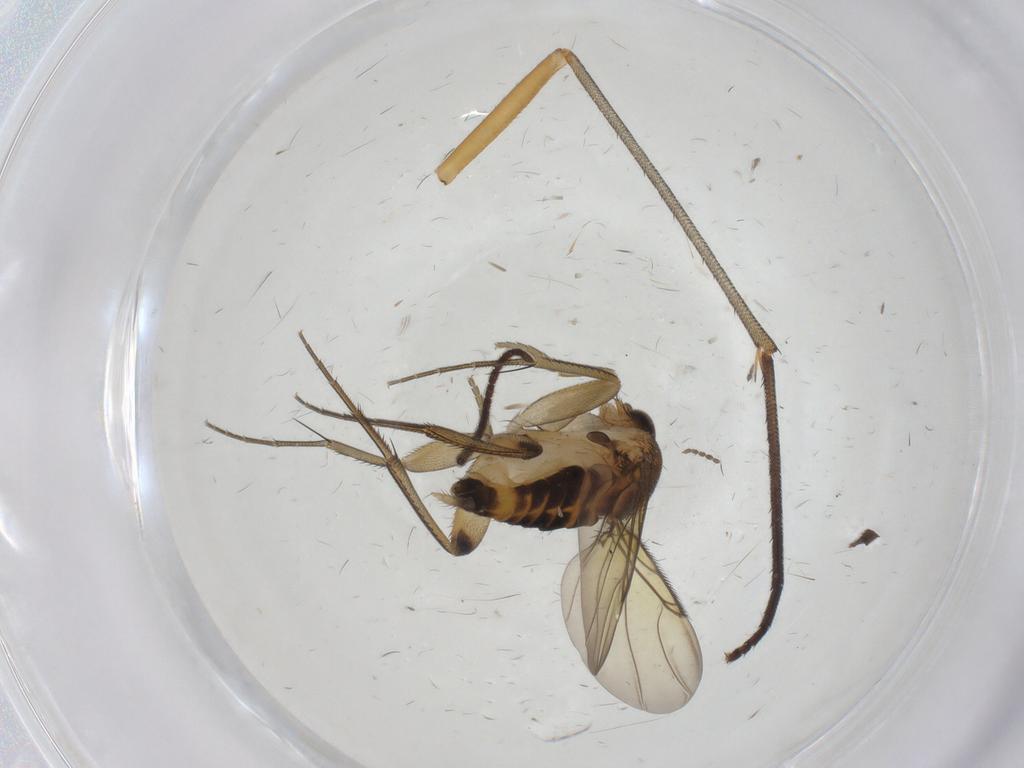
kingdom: Animalia
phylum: Arthropoda
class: Insecta
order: Diptera
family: Phoridae
